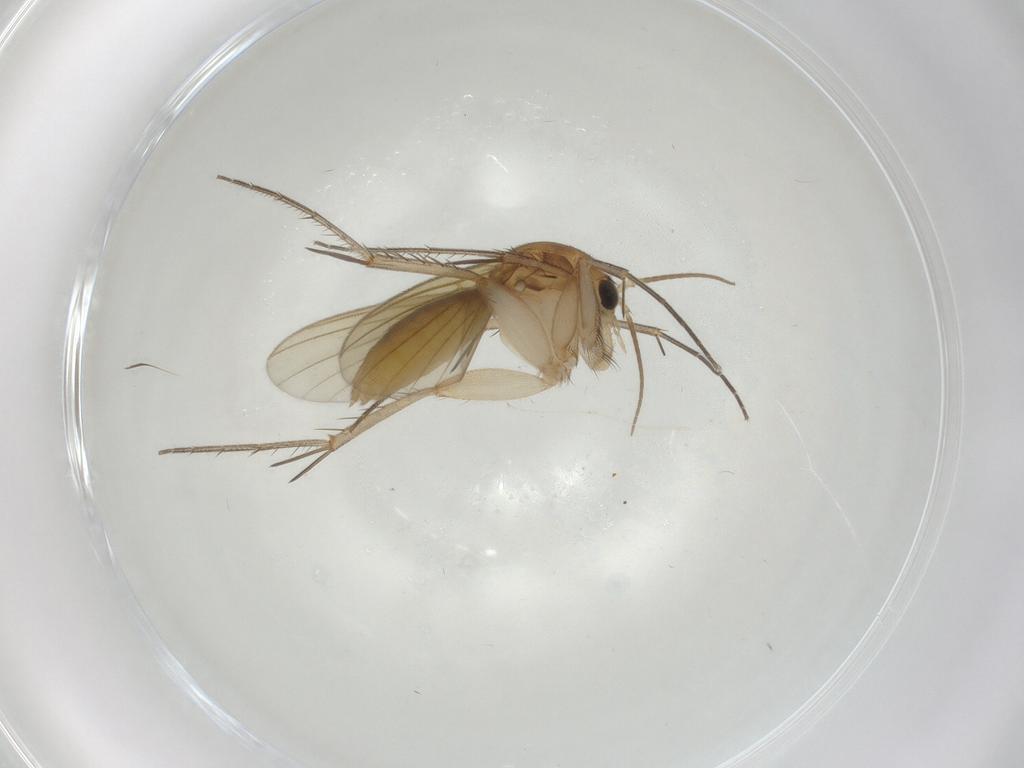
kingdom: Animalia
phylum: Arthropoda
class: Insecta
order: Diptera
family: Mycetophilidae
